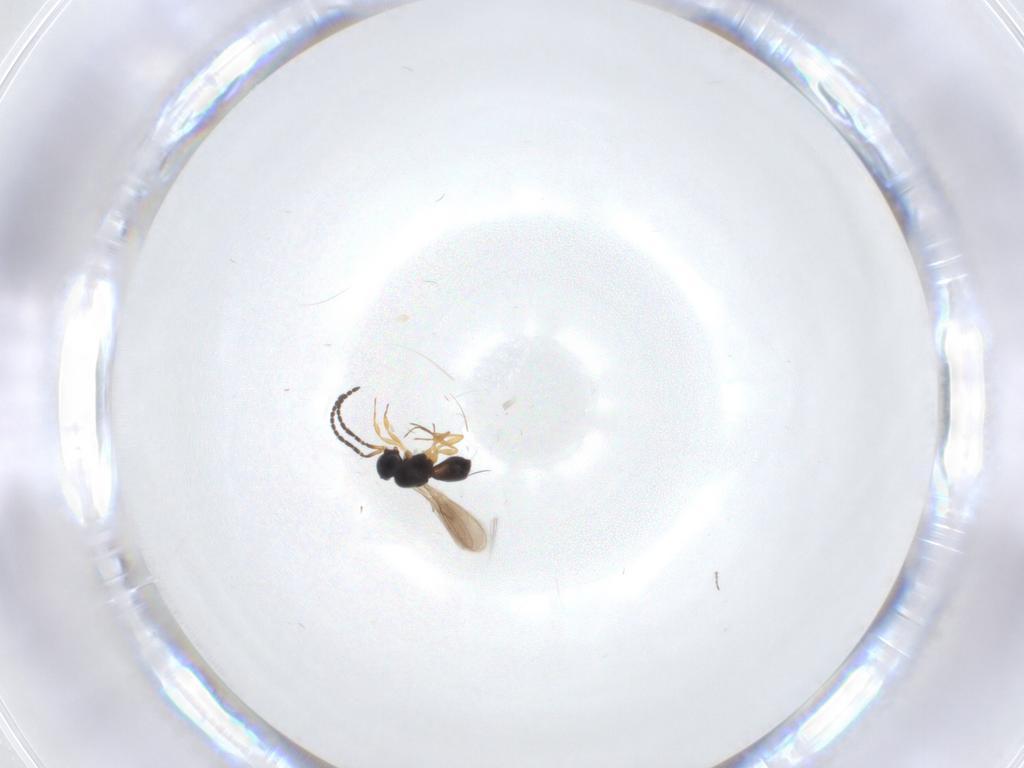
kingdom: Animalia
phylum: Arthropoda
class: Insecta
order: Hymenoptera
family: Scelionidae
